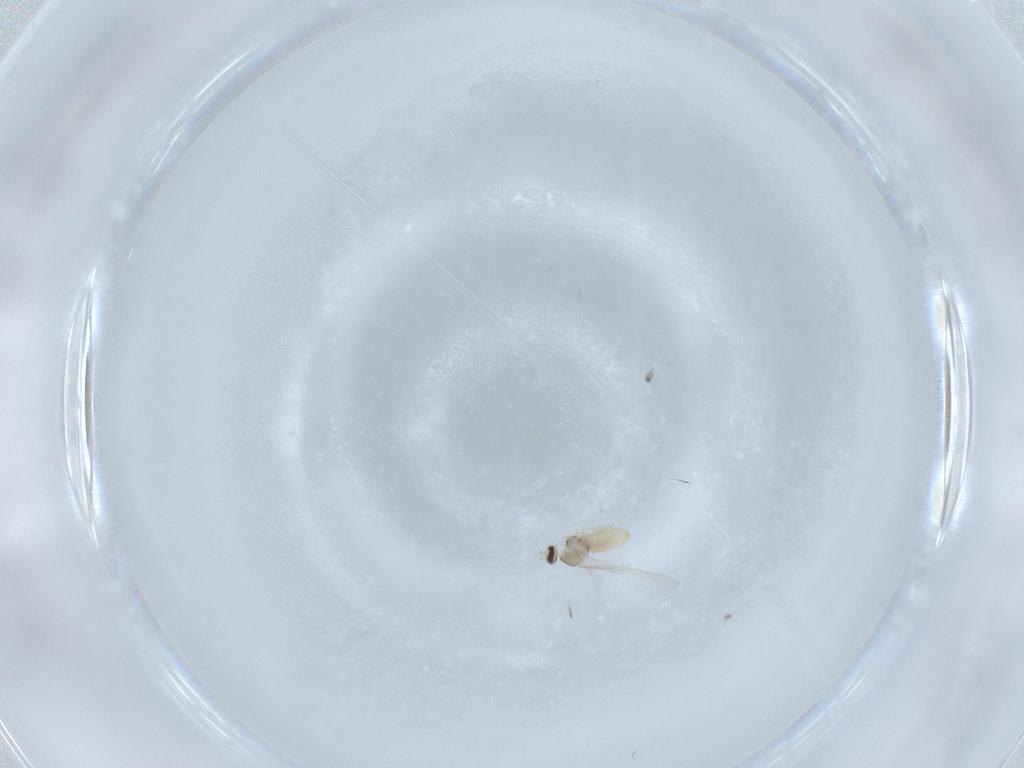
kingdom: Animalia
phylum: Arthropoda
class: Insecta
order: Diptera
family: Cecidomyiidae
